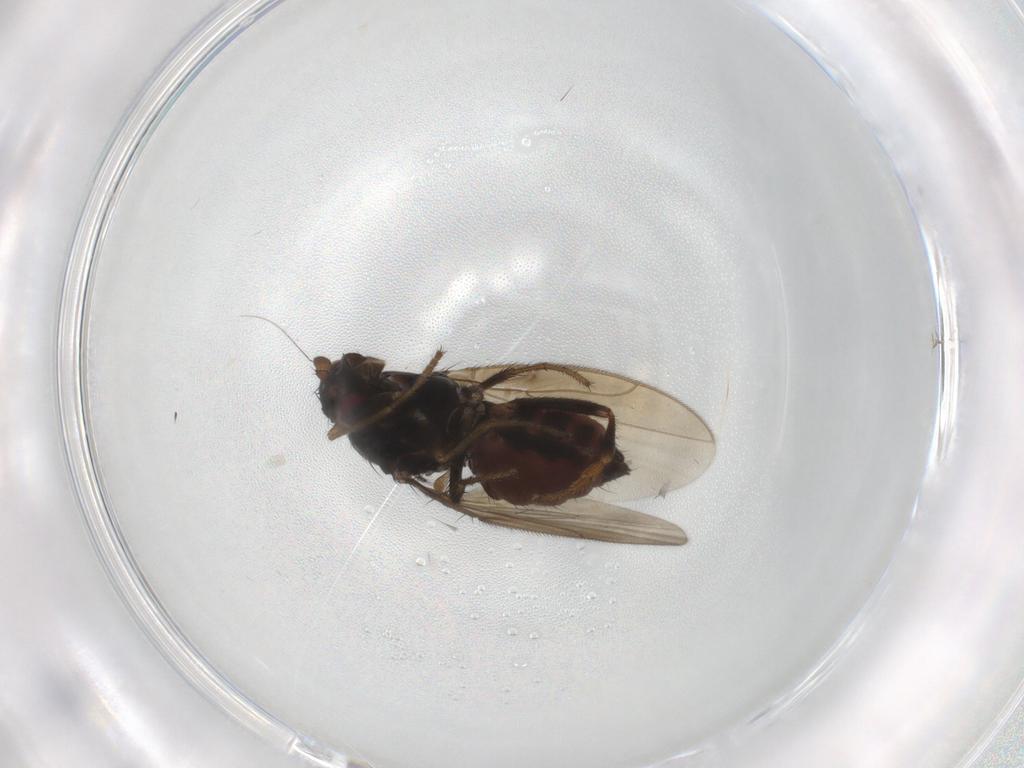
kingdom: Animalia
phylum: Arthropoda
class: Insecta
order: Diptera
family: Sphaeroceridae
